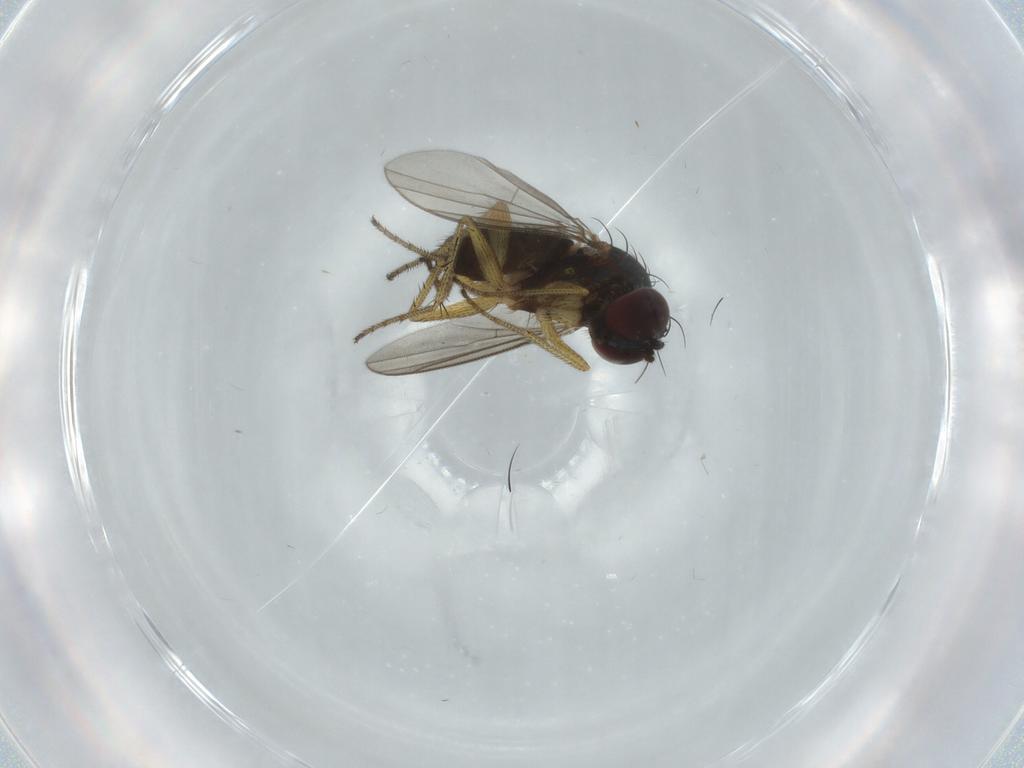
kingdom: Animalia
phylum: Arthropoda
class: Insecta
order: Diptera
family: Dolichopodidae
